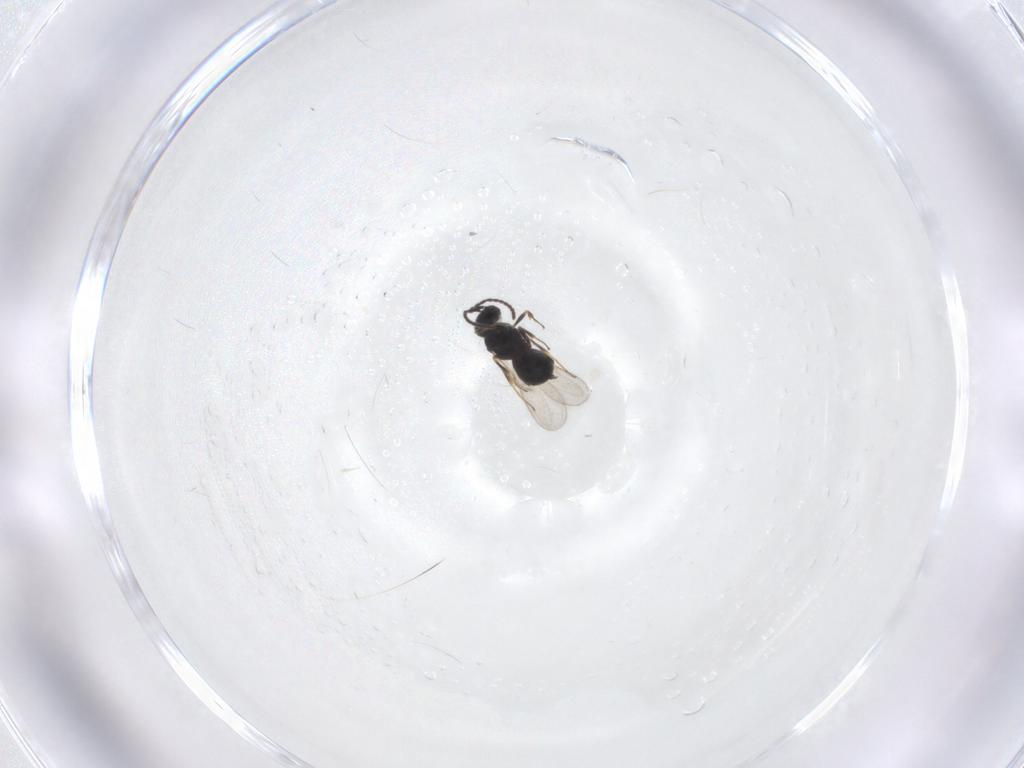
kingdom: Animalia
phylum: Arthropoda
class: Insecta
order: Hymenoptera
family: Scelionidae
